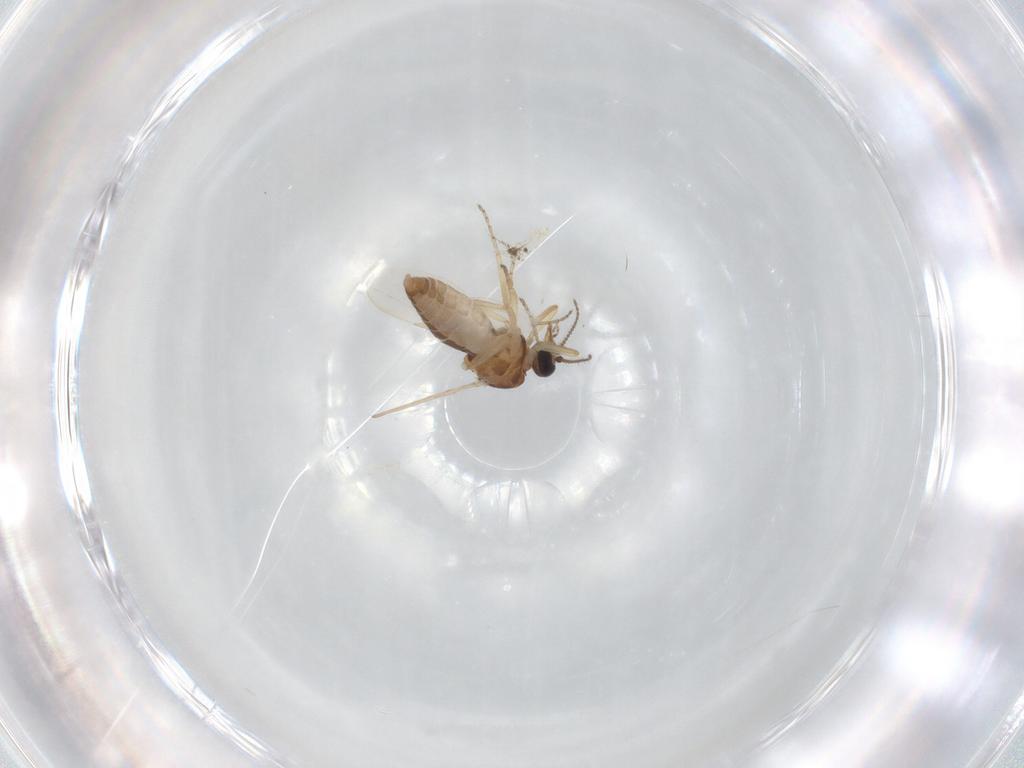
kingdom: Animalia
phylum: Arthropoda
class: Insecta
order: Diptera
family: Ceratopogonidae
